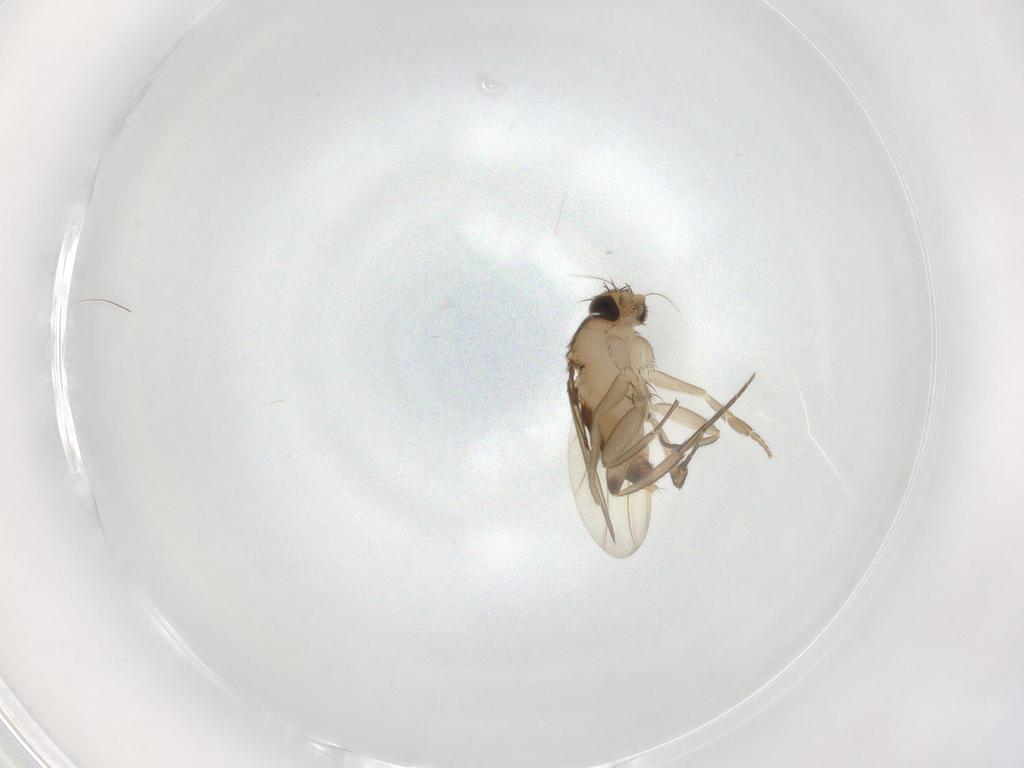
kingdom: Animalia
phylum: Arthropoda
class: Insecta
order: Diptera
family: Phoridae
